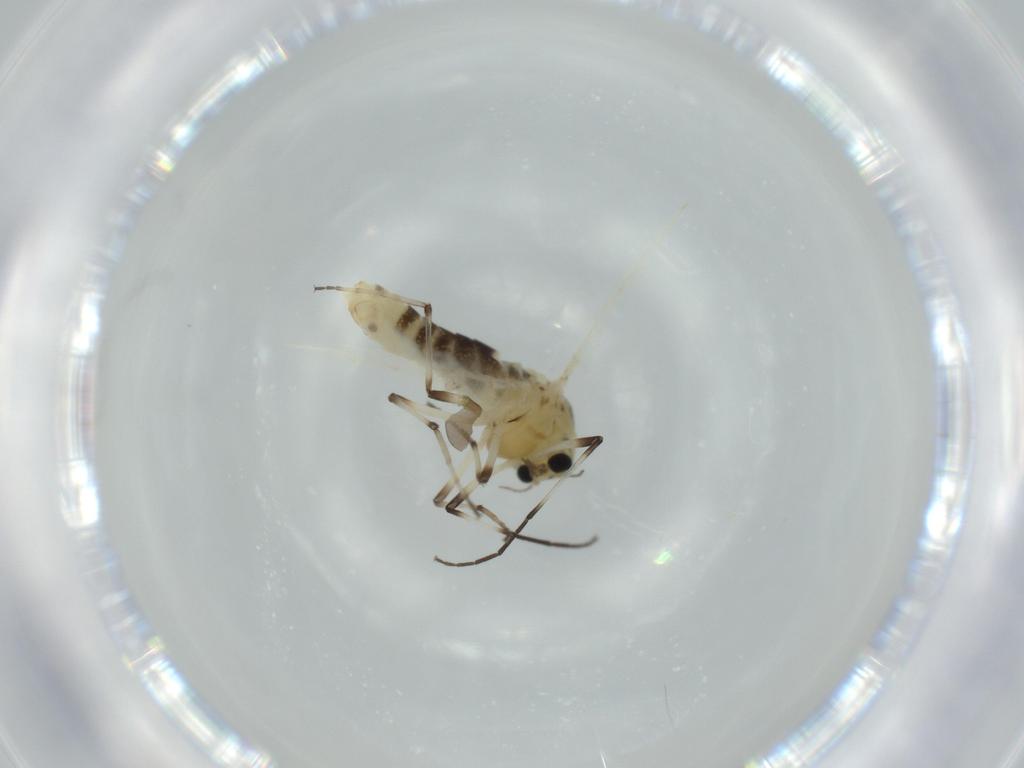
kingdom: Animalia
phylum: Arthropoda
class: Insecta
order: Diptera
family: Chironomidae
